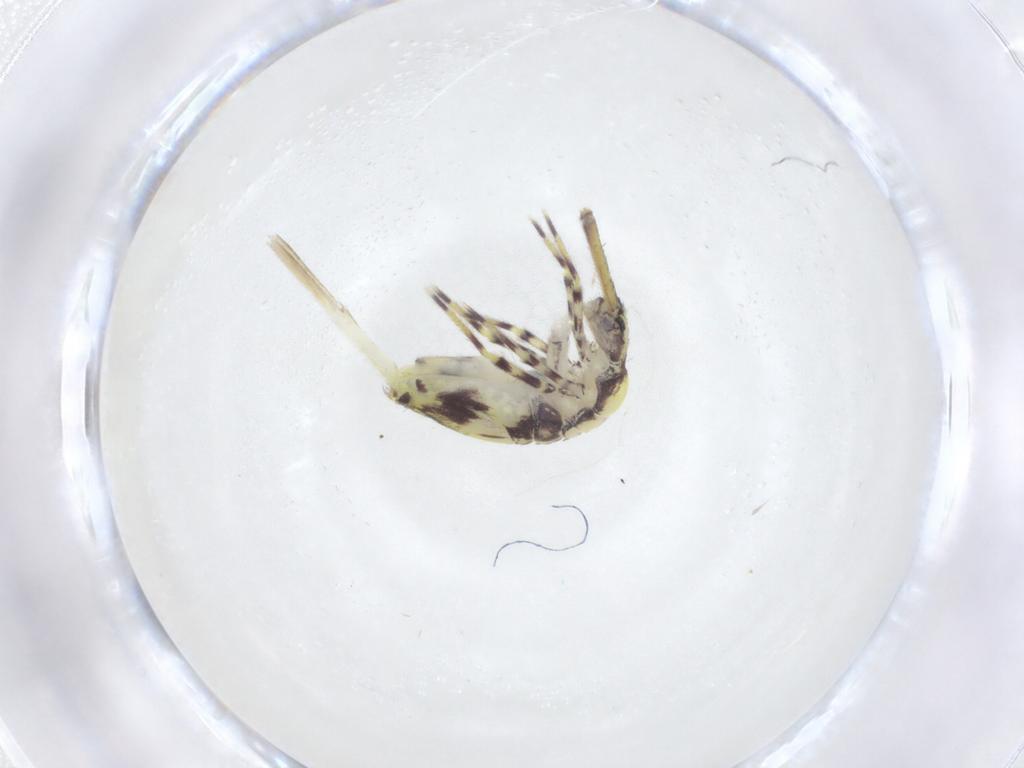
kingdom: Animalia
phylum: Arthropoda
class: Collembola
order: Entomobryomorpha
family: Entomobryidae
